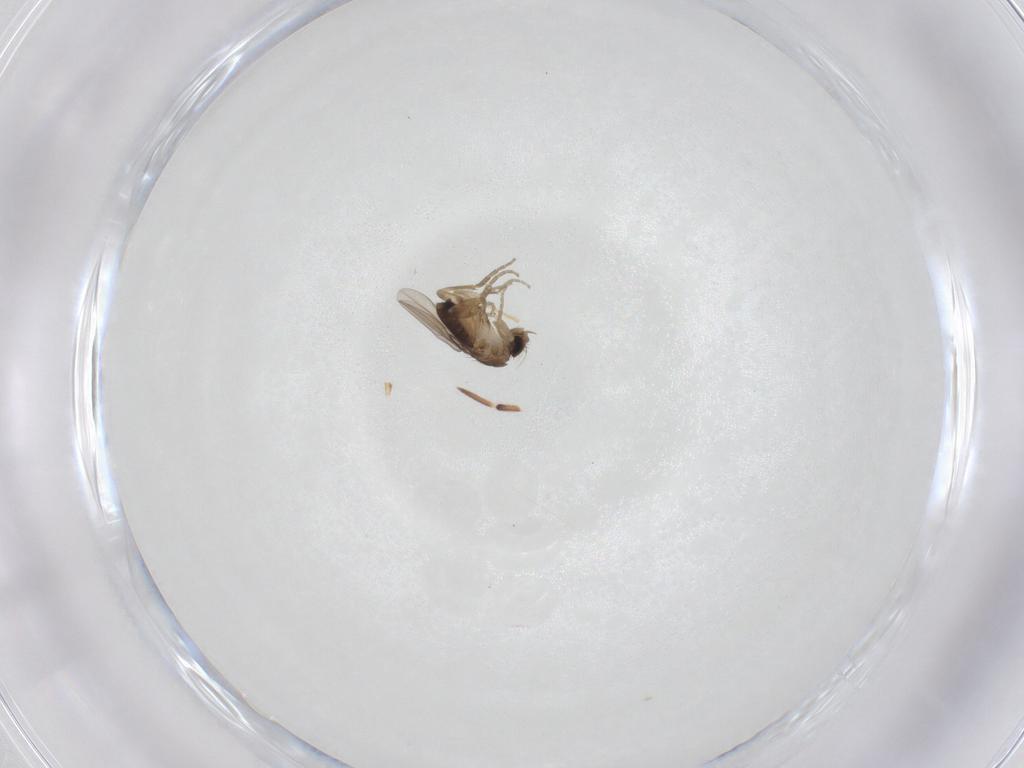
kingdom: Animalia
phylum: Arthropoda
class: Insecta
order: Diptera
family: Phoridae
